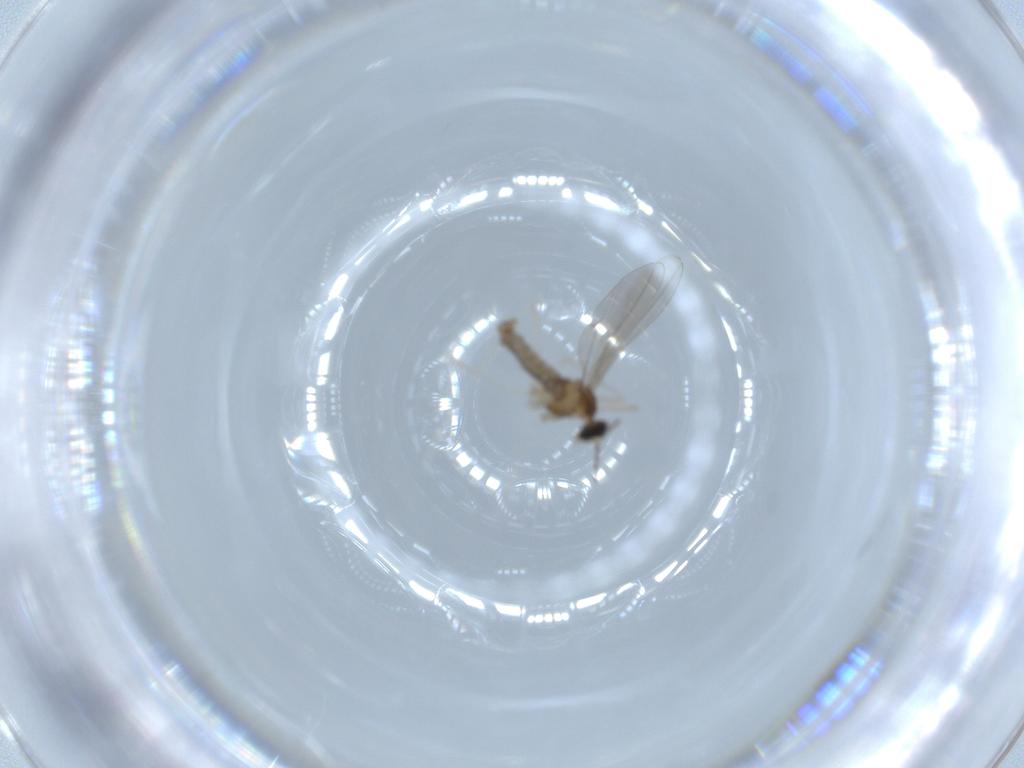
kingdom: Animalia
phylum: Arthropoda
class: Insecta
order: Diptera
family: Cecidomyiidae
